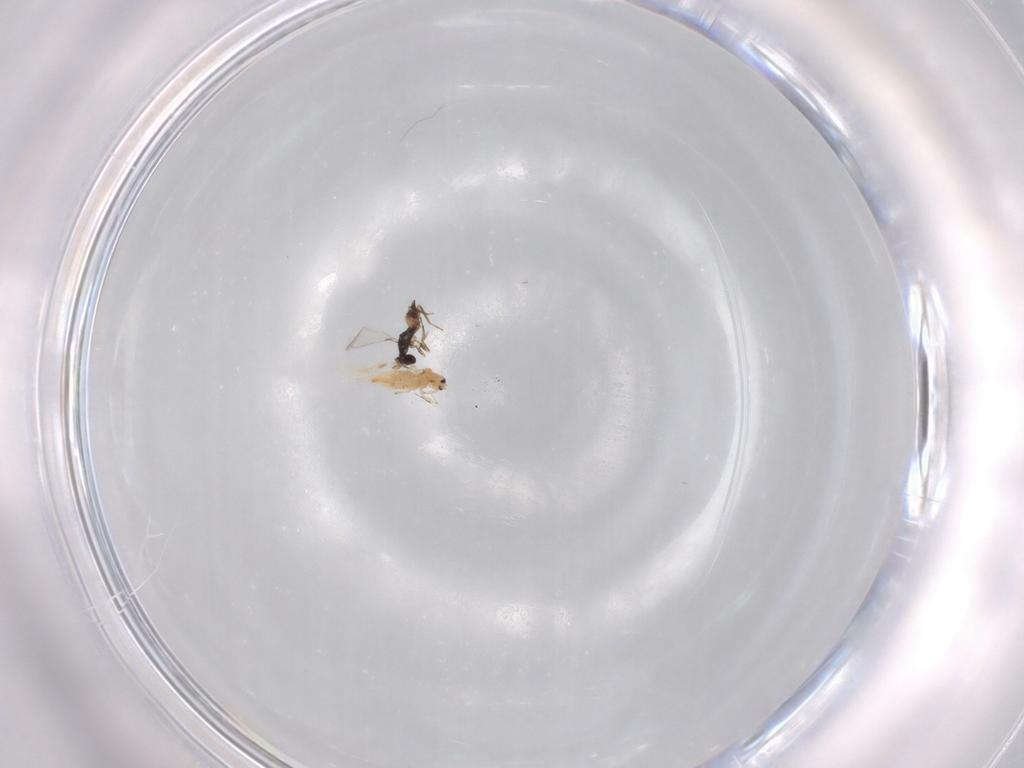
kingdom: Animalia
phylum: Arthropoda
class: Insecta
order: Hymenoptera
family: Mymaridae
